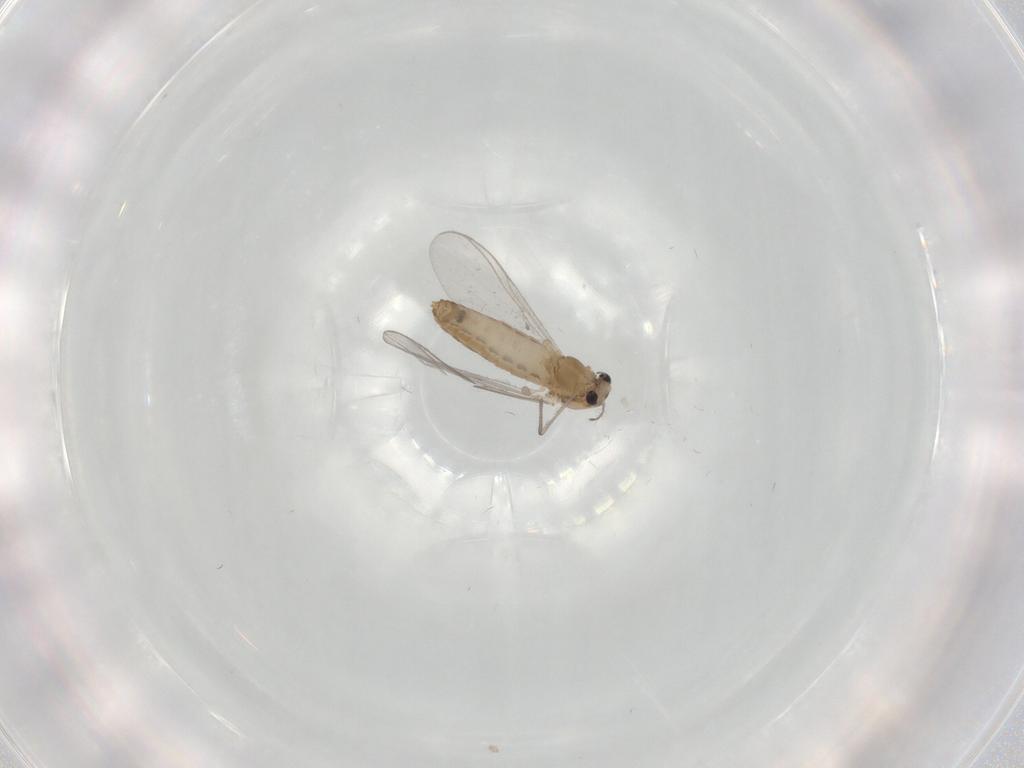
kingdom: Animalia
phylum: Arthropoda
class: Insecta
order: Diptera
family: Chironomidae
